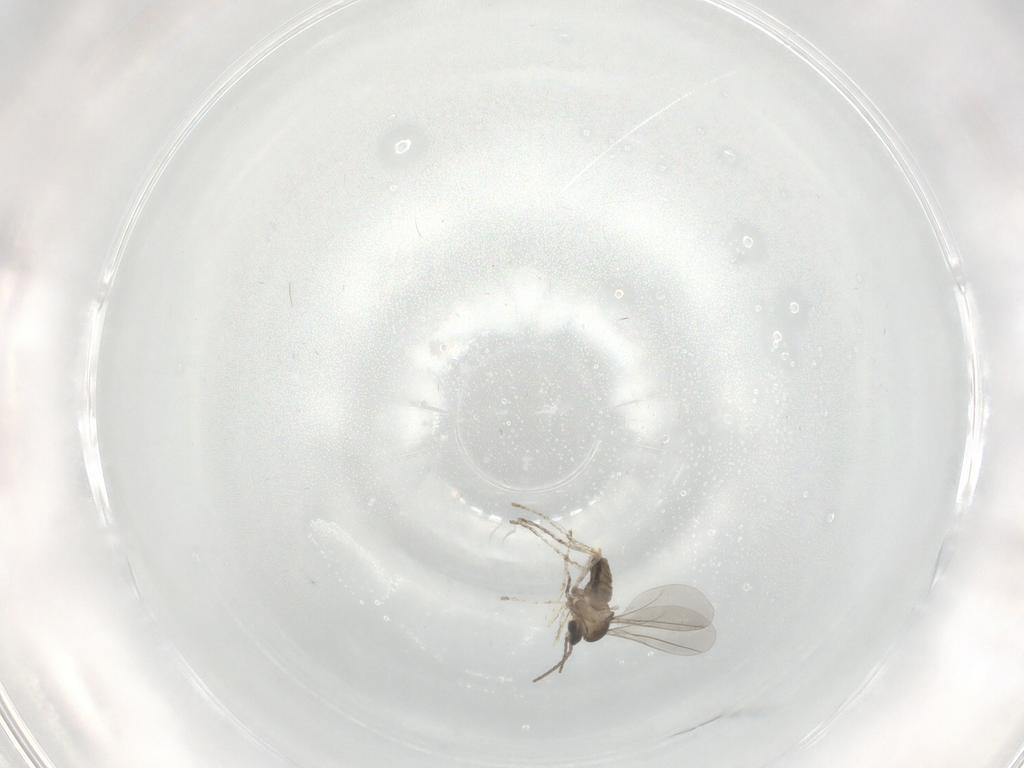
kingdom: Animalia
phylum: Arthropoda
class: Insecta
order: Diptera
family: Cecidomyiidae
